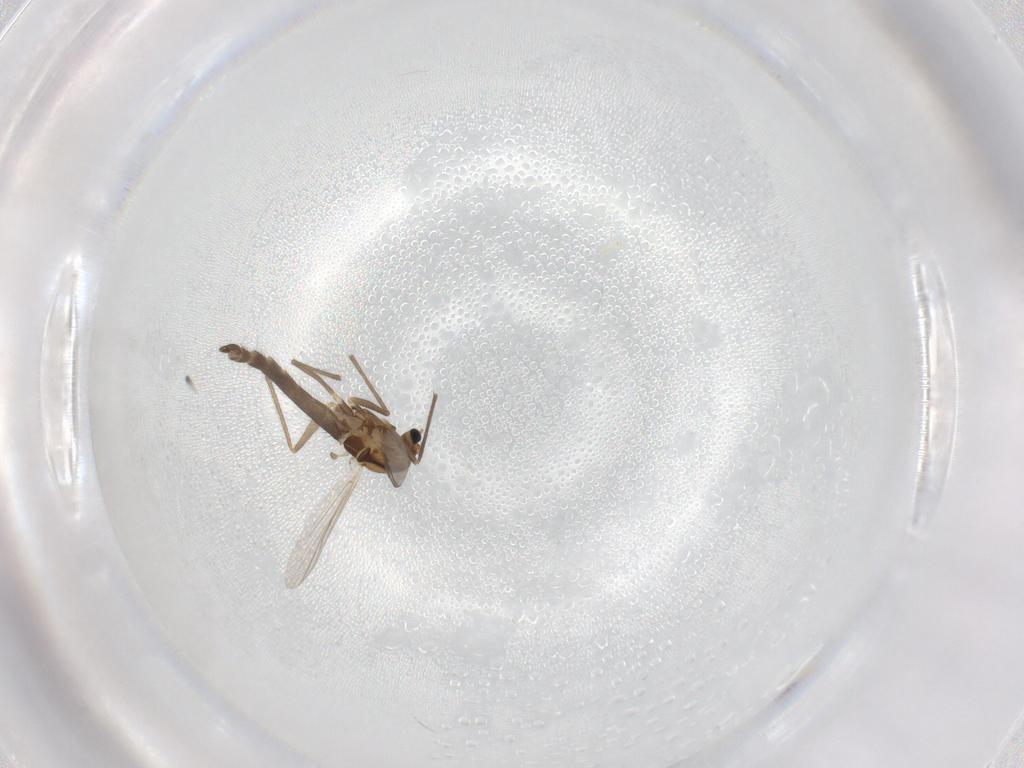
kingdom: Animalia
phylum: Arthropoda
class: Insecta
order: Diptera
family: Chironomidae
